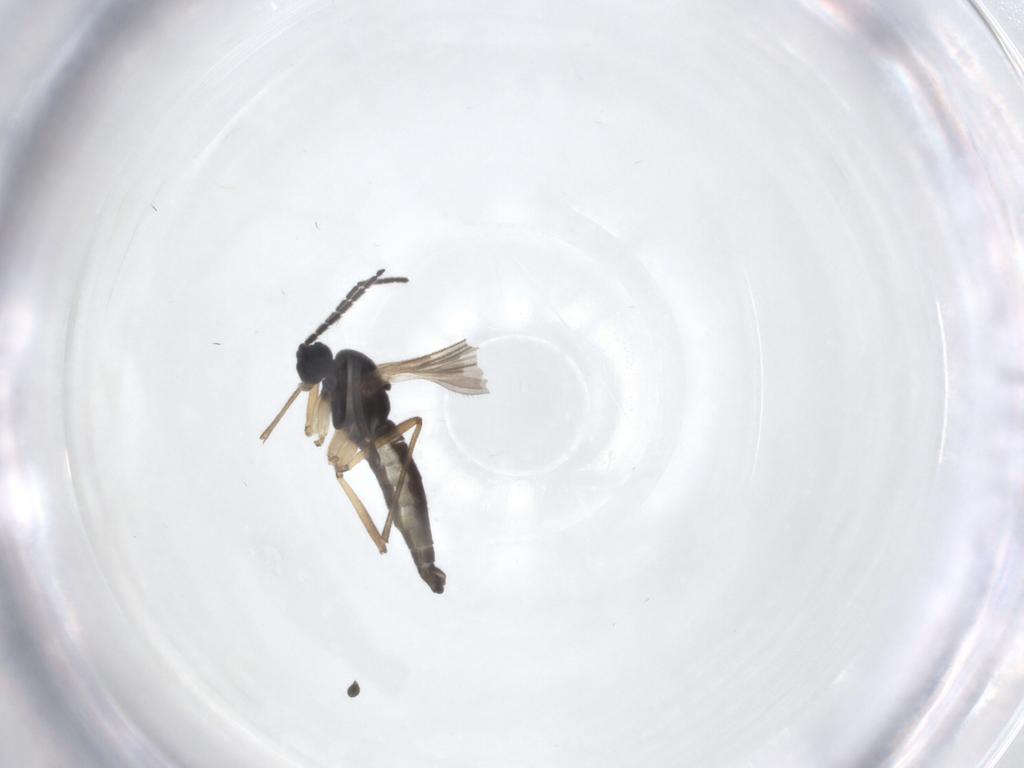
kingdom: Animalia
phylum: Arthropoda
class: Insecta
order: Diptera
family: Sciaridae
